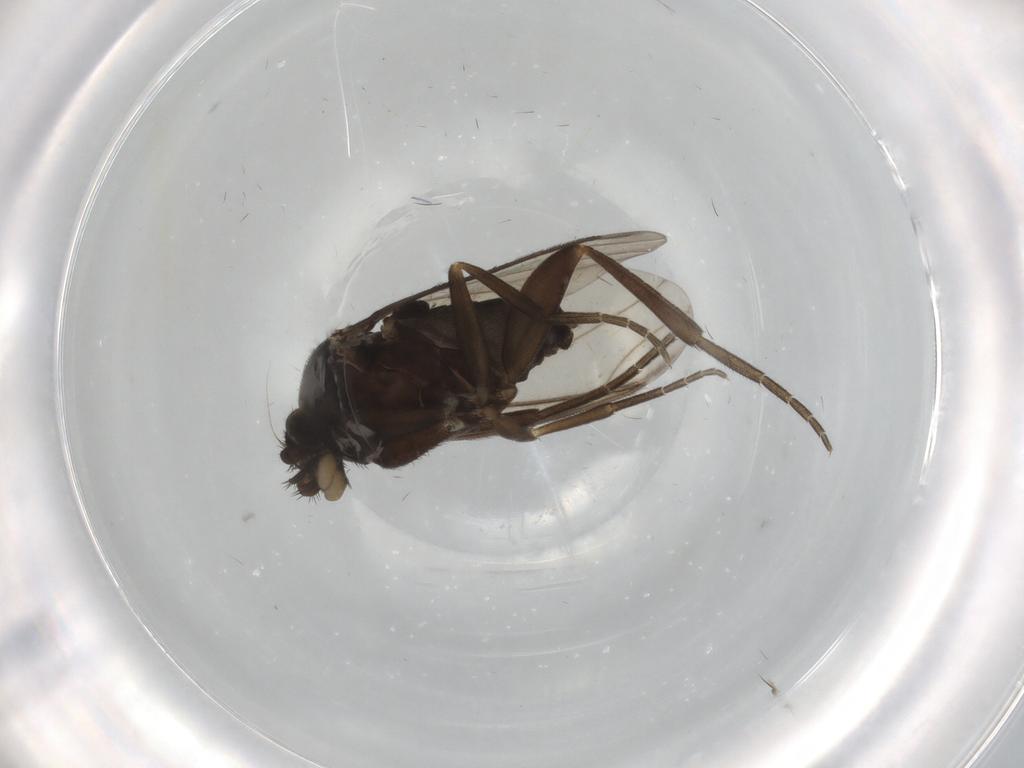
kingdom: Animalia
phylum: Arthropoda
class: Insecta
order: Diptera
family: Phoridae
